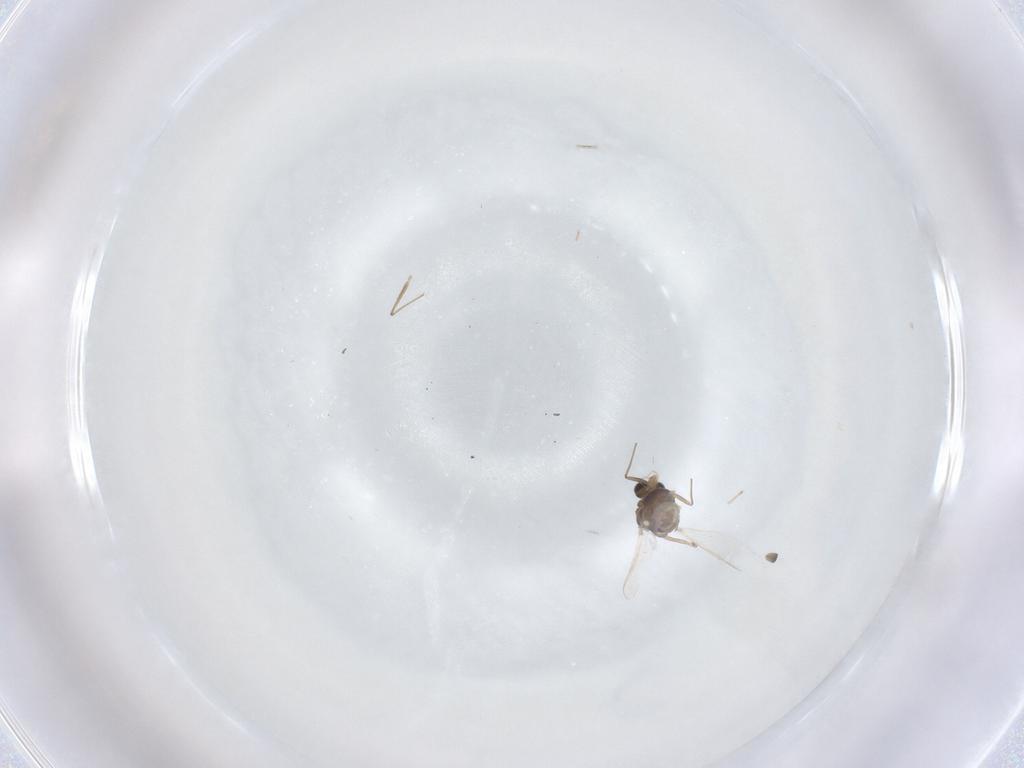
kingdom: Animalia
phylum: Arthropoda
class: Insecta
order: Diptera
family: Chironomidae
